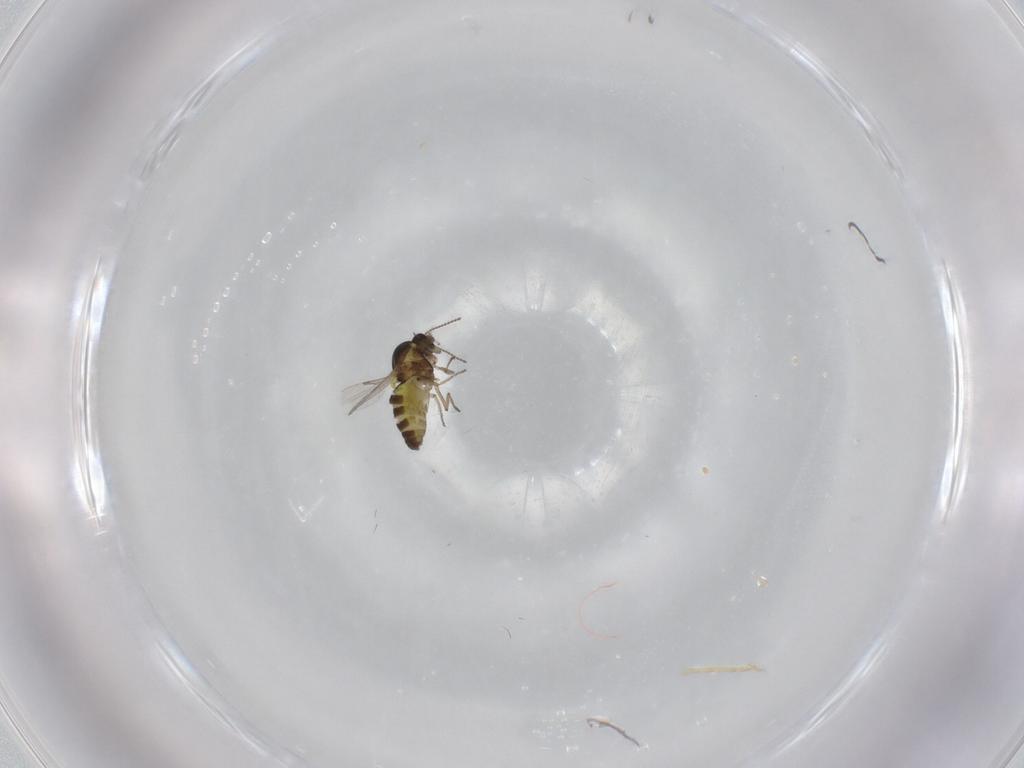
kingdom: Animalia
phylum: Arthropoda
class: Insecta
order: Diptera
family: Ceratopogonidae
